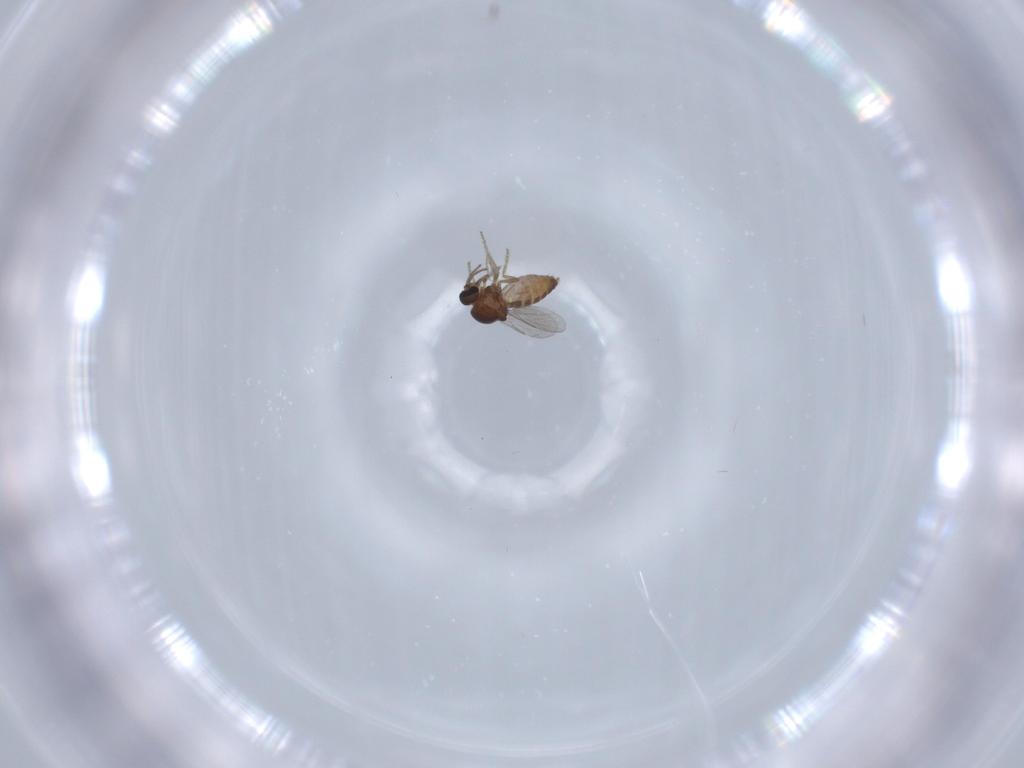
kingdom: Animalia
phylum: Arthropoda
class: Insecta
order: Diptera
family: Ceratopogonidae
